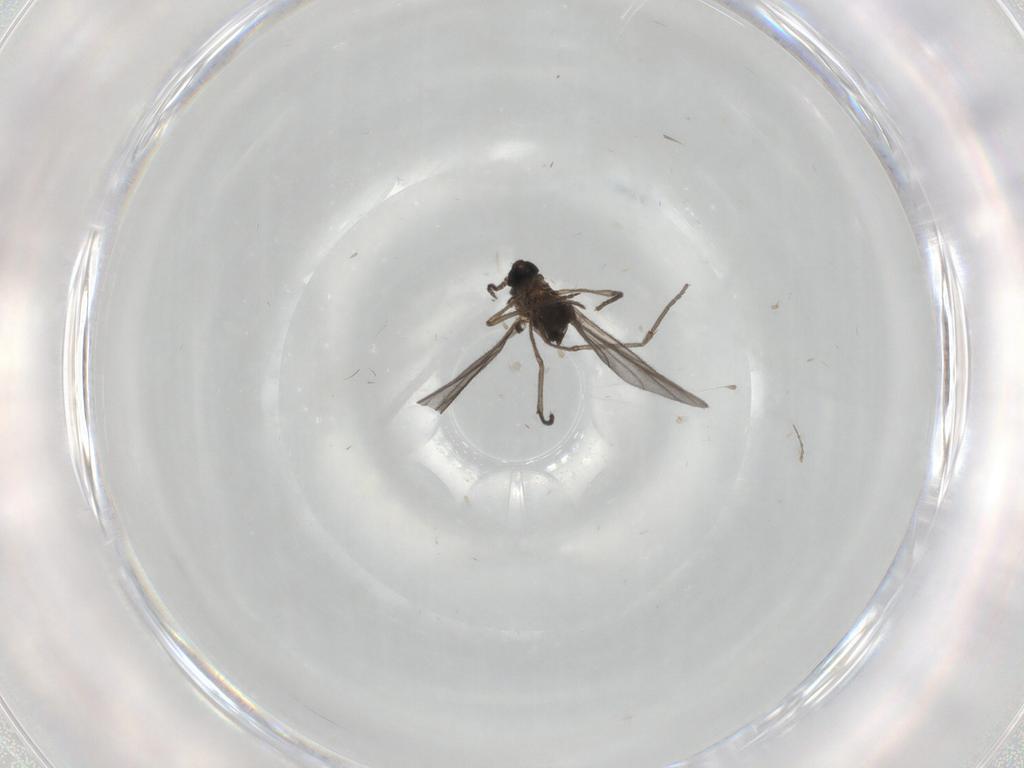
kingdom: Animalia
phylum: Arthropoda
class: Insecta
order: Diptera
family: Sciaridae
